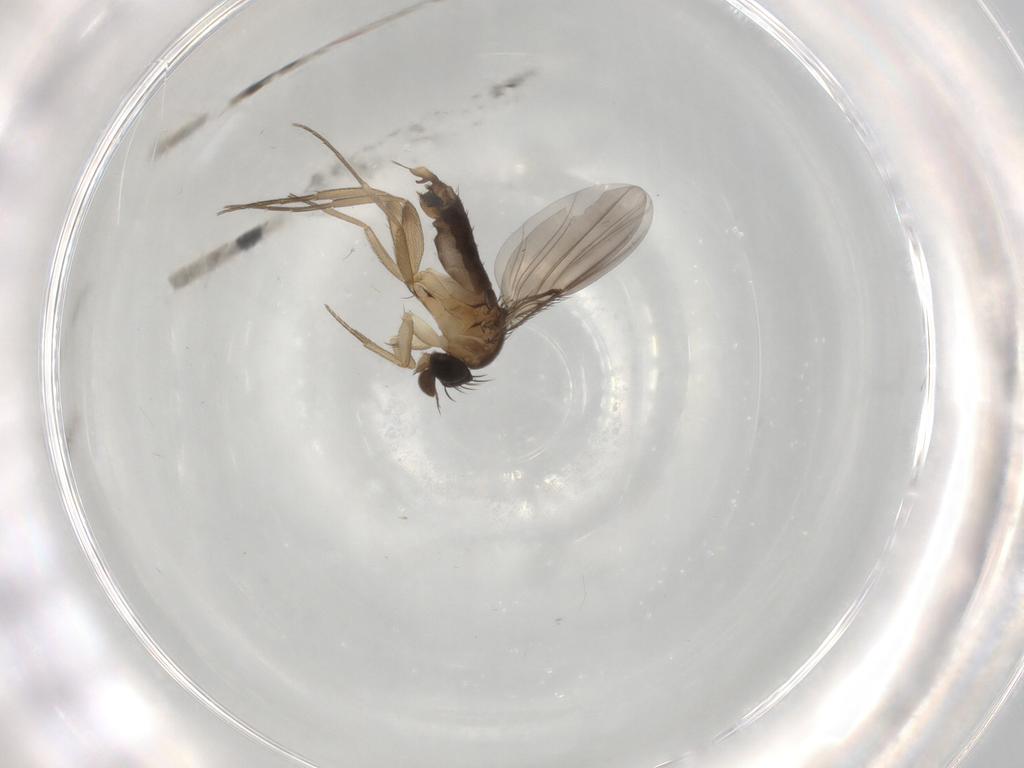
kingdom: Animalia
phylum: Arthropoda
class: Insecta
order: Diptera
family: Phoridae
